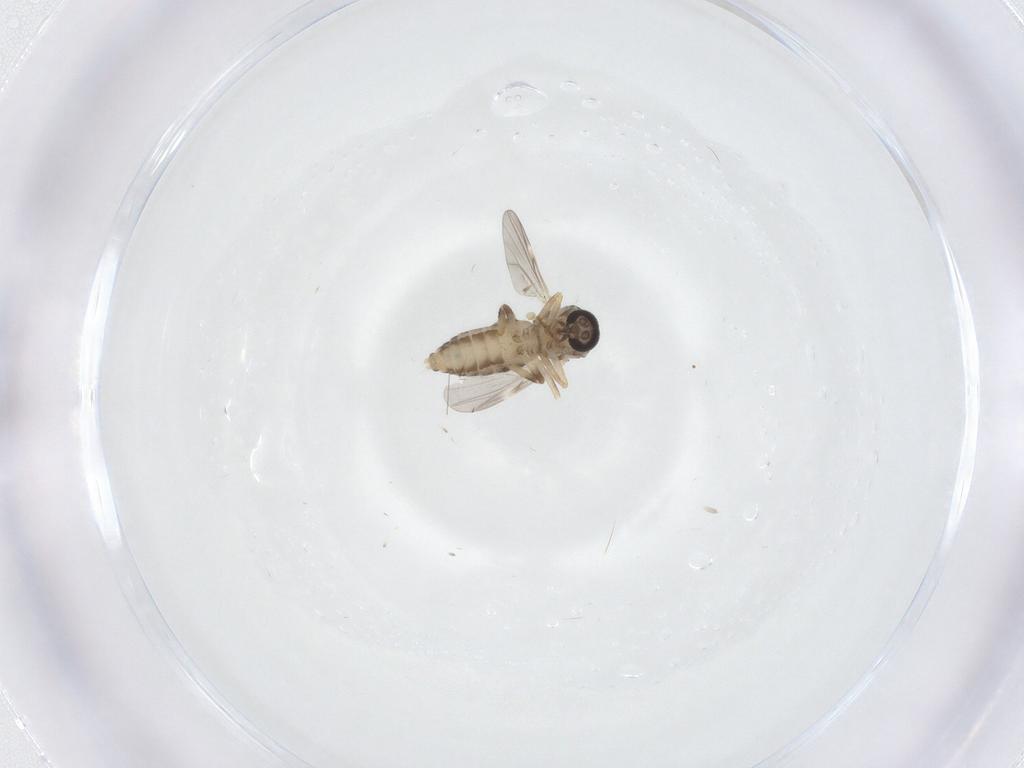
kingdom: Animalia
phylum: Arthropoda
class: Insecta
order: Diptera
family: Ceratopogonidae
